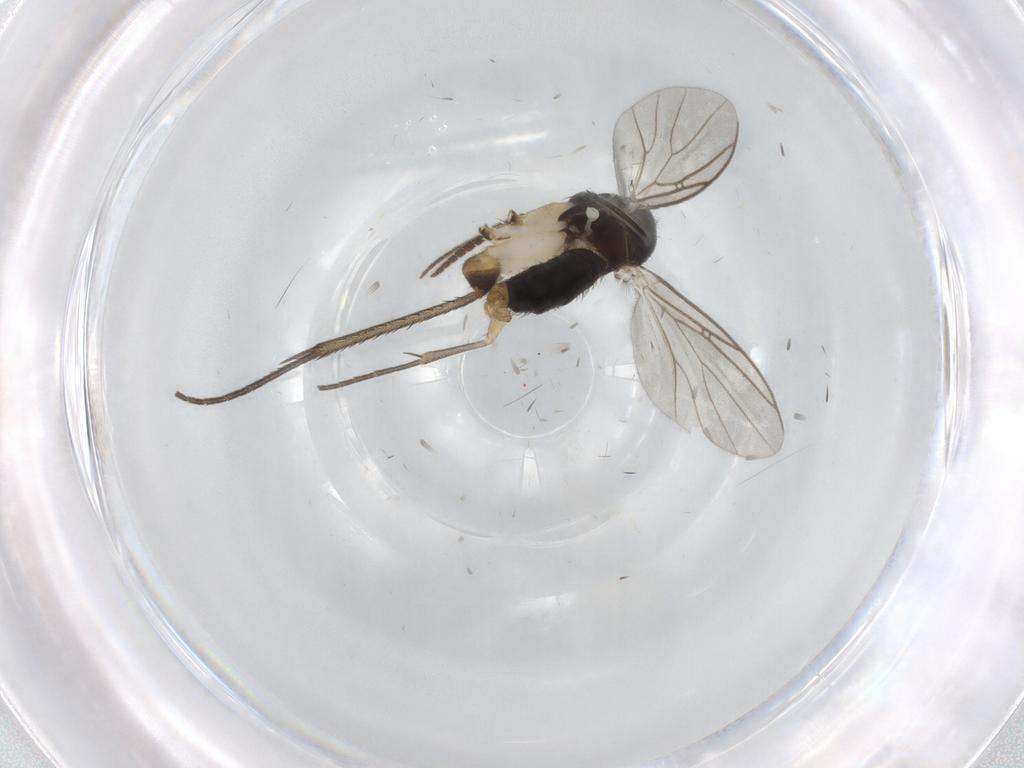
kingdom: Animalia
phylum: Arthropoda
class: Insecta
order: Diptera
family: Mycetophilidae
